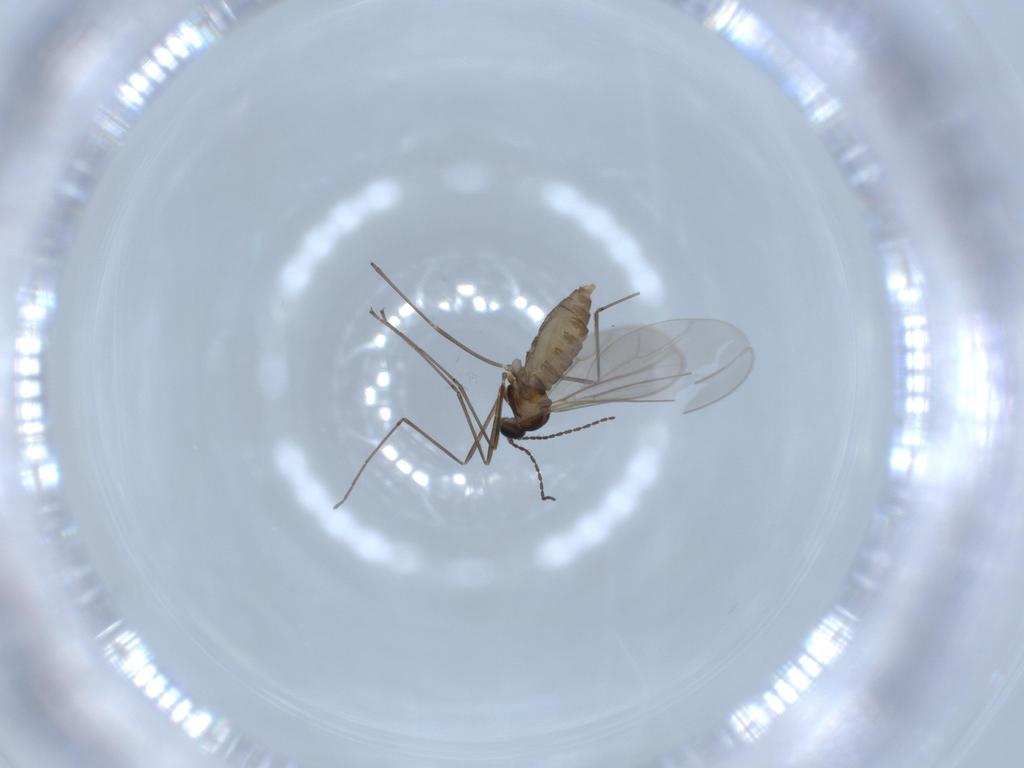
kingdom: Animalia
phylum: Arthropoda
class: Insecta
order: Diptera
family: Cecidomyiidae
